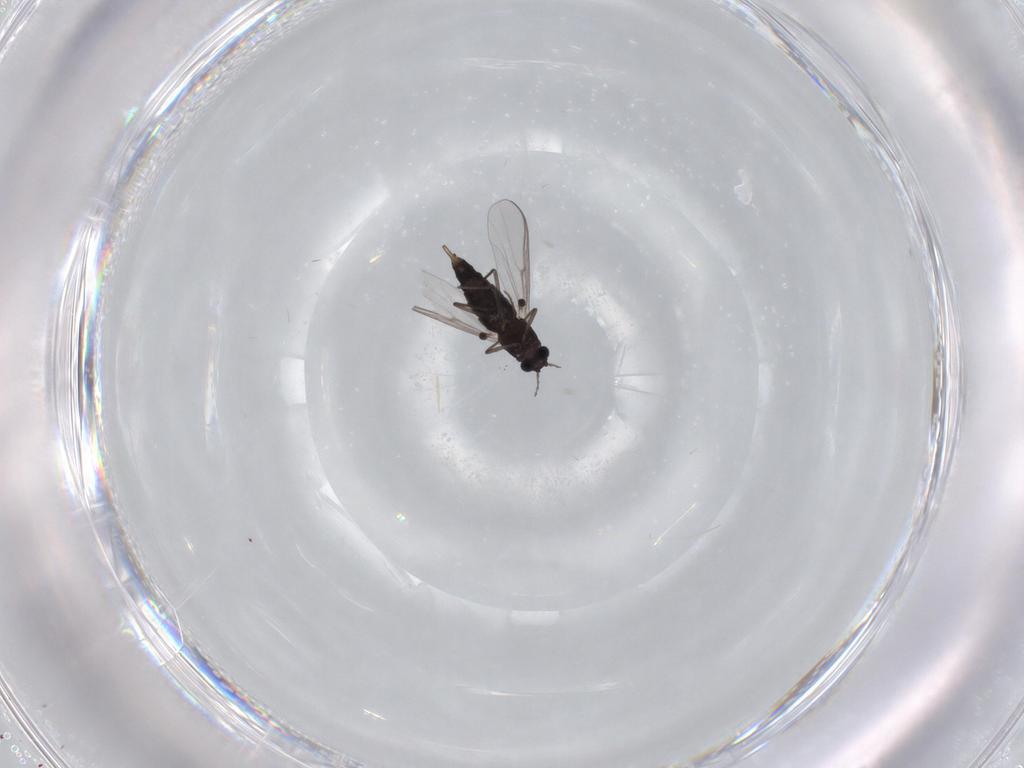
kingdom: Animalia
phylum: Arthropoda
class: Insecta
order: Diptera
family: Chironomidae
